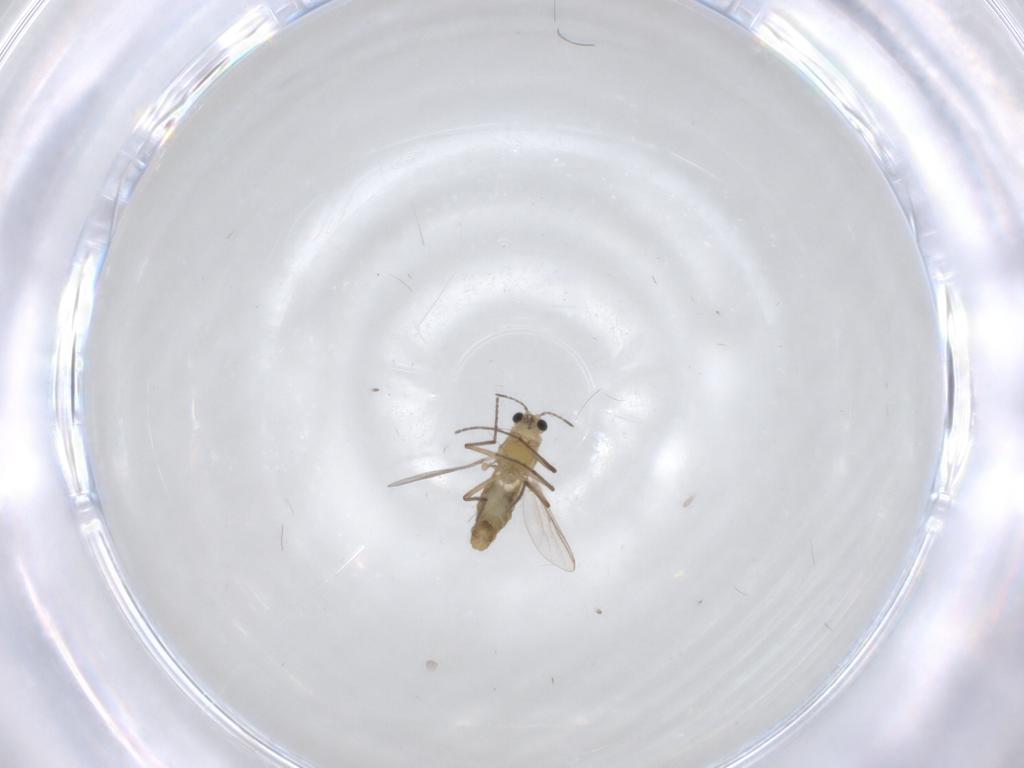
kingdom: Animalia
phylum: Arthropoda
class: Insecta
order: Diptera
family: Chironomidae
